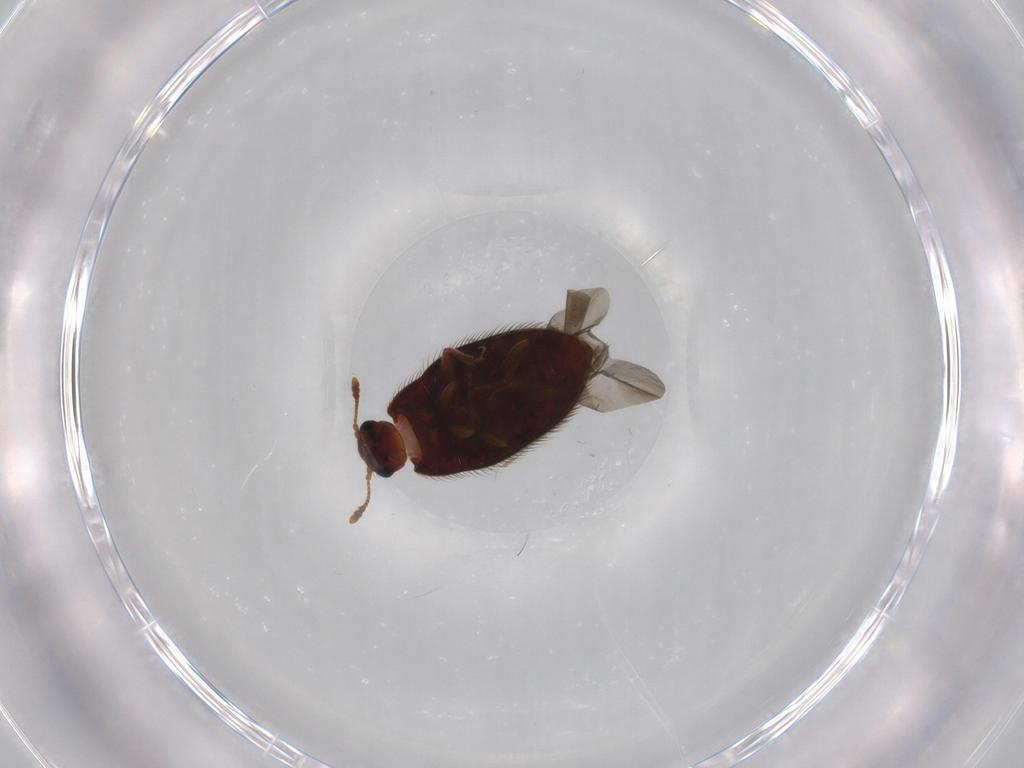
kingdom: Animalia
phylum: Arthropoda
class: Insecta
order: Coleoptera
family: Biphyllidae
